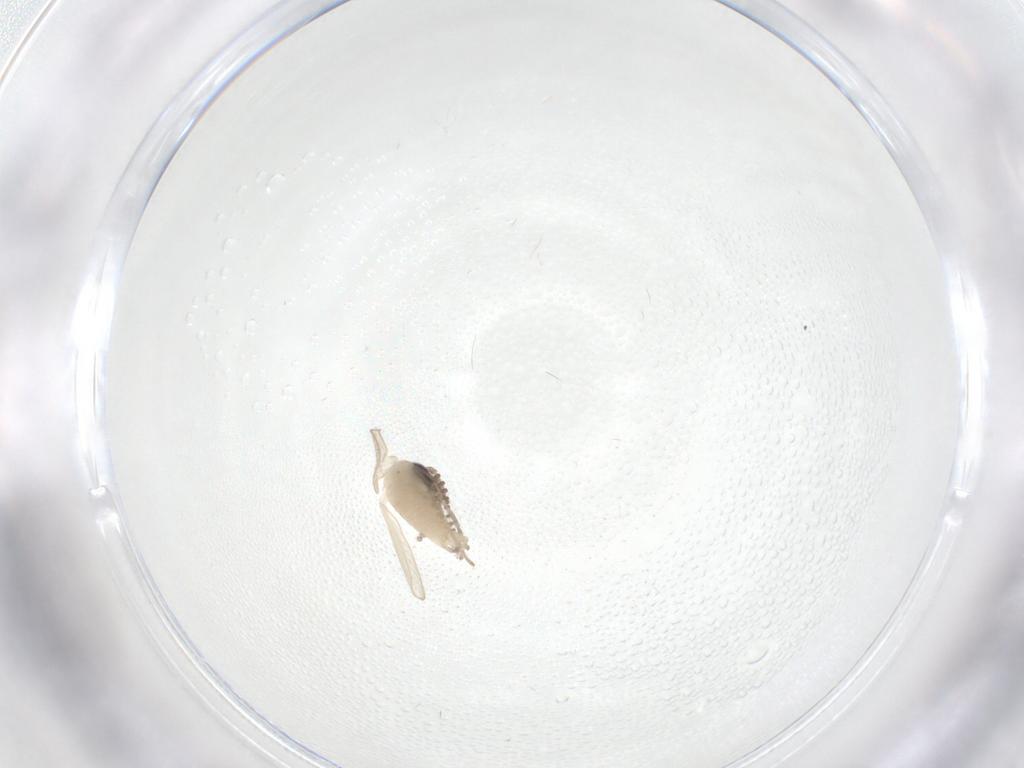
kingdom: Animalia
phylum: Arthropoda
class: Insecta
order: Diptera
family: Psychodidae
